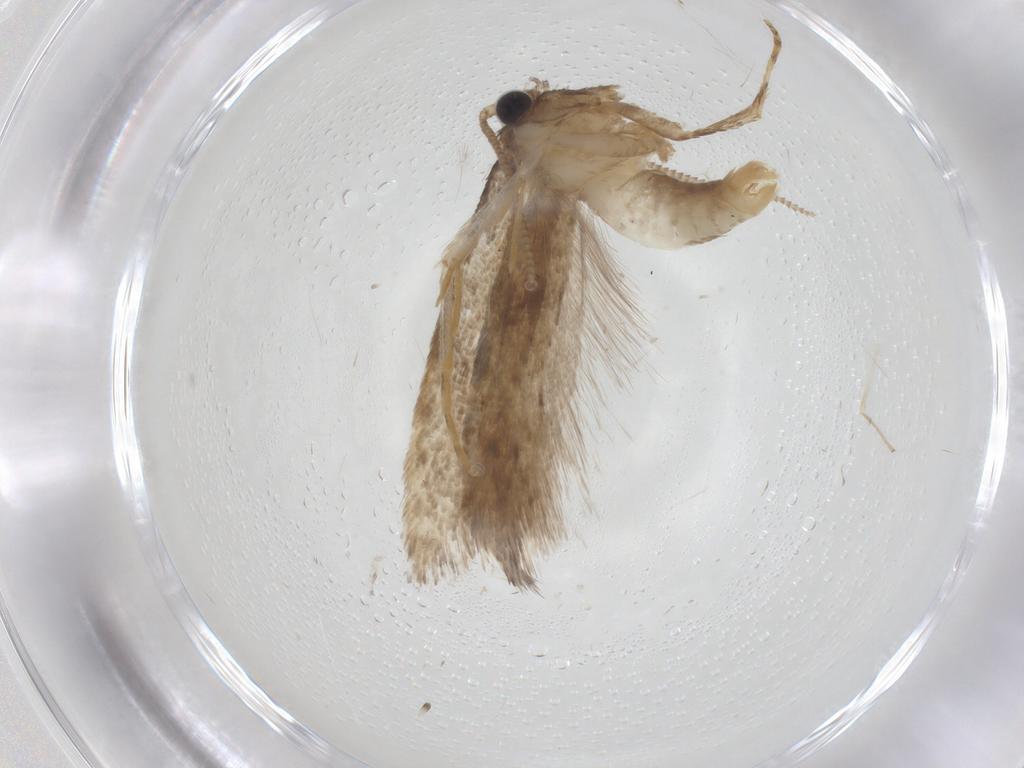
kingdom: Animalia
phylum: Arthropoda
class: Insecta
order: Lepidoptera
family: Tineidae
